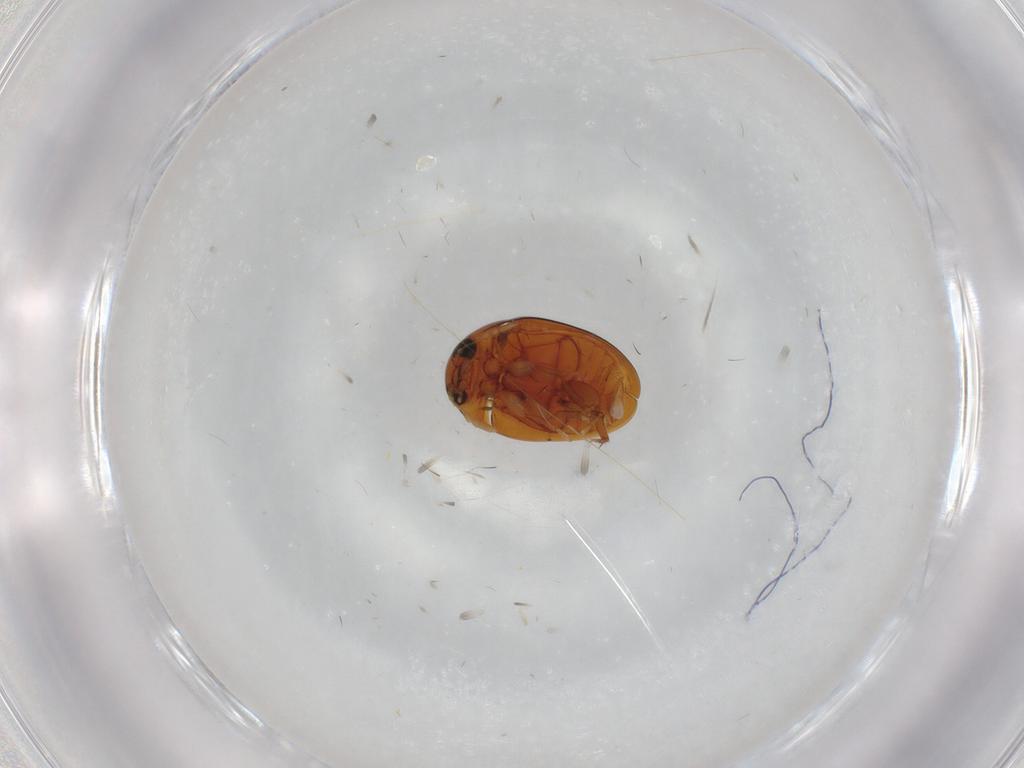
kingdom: Animalia
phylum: Arthropoda
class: Insecta
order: Coleoptera
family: Phalacridae
